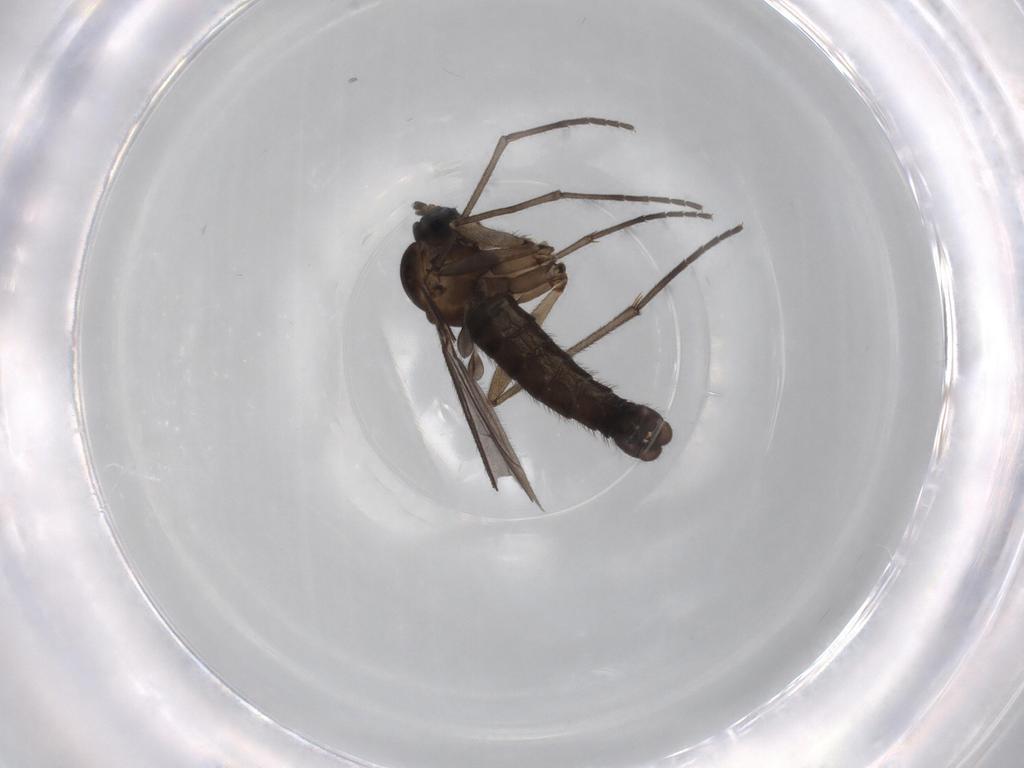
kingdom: Animalia
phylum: Arthropoda
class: Insecta
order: Diptera
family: Sciaridae
